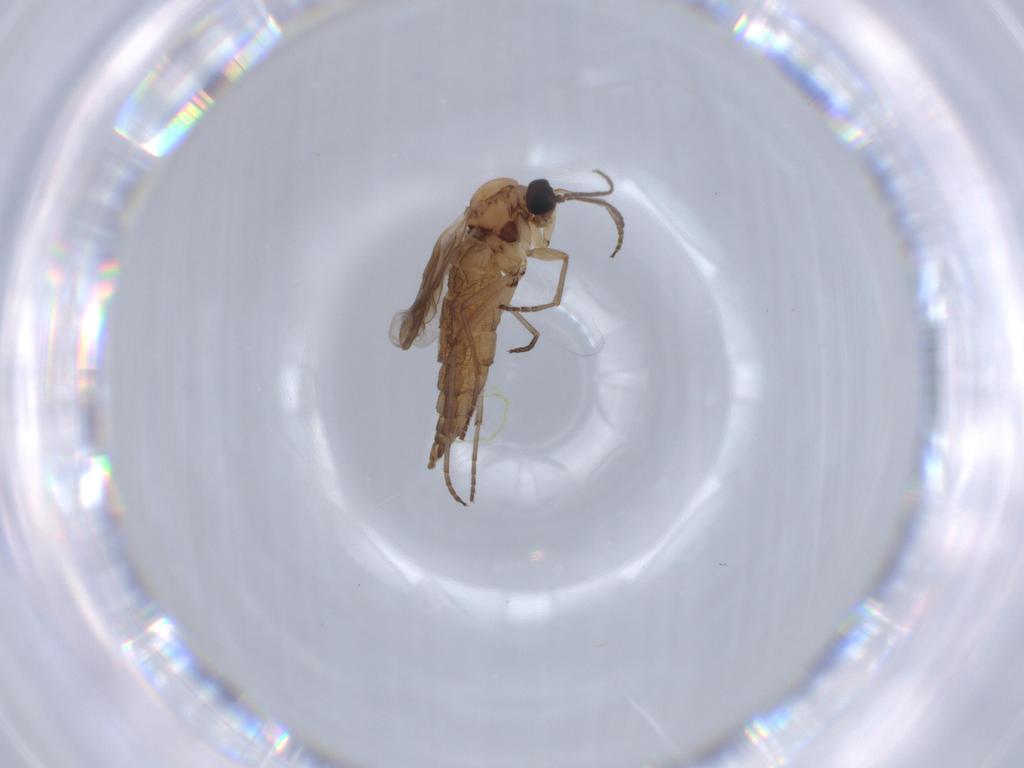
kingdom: Animalia
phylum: Arthropoda
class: Insecta
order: Diptera
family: Sciaridae
